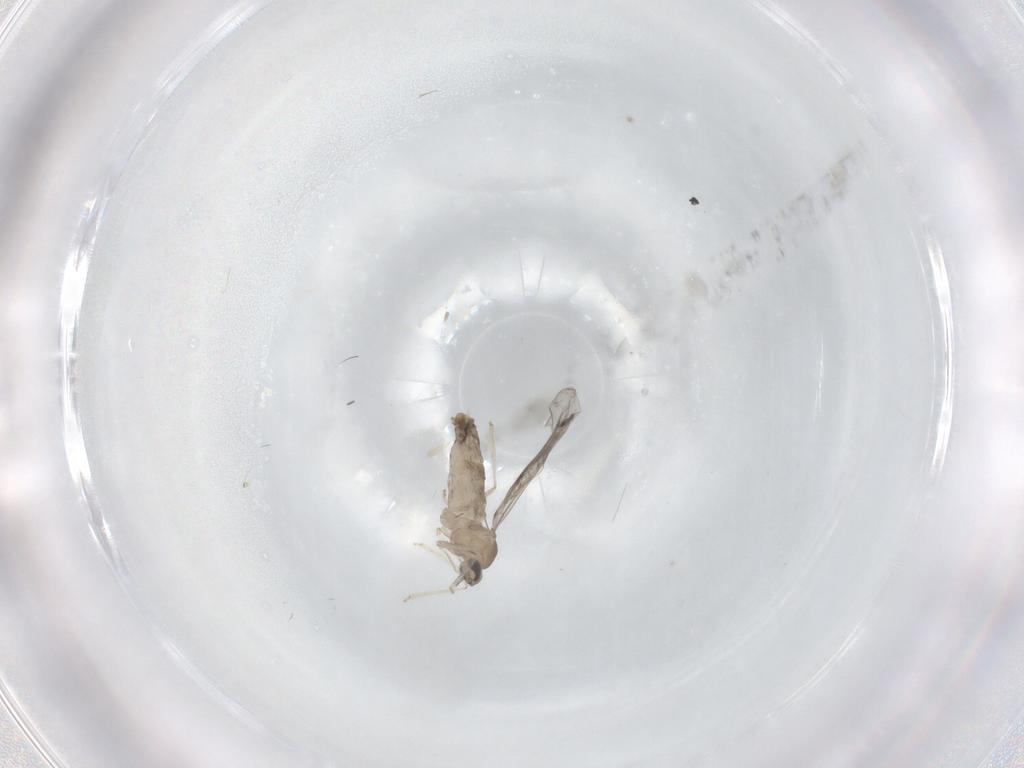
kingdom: Animalia
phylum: Arthropoda
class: Insecta
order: Diptera
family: Cecidomyiidae
